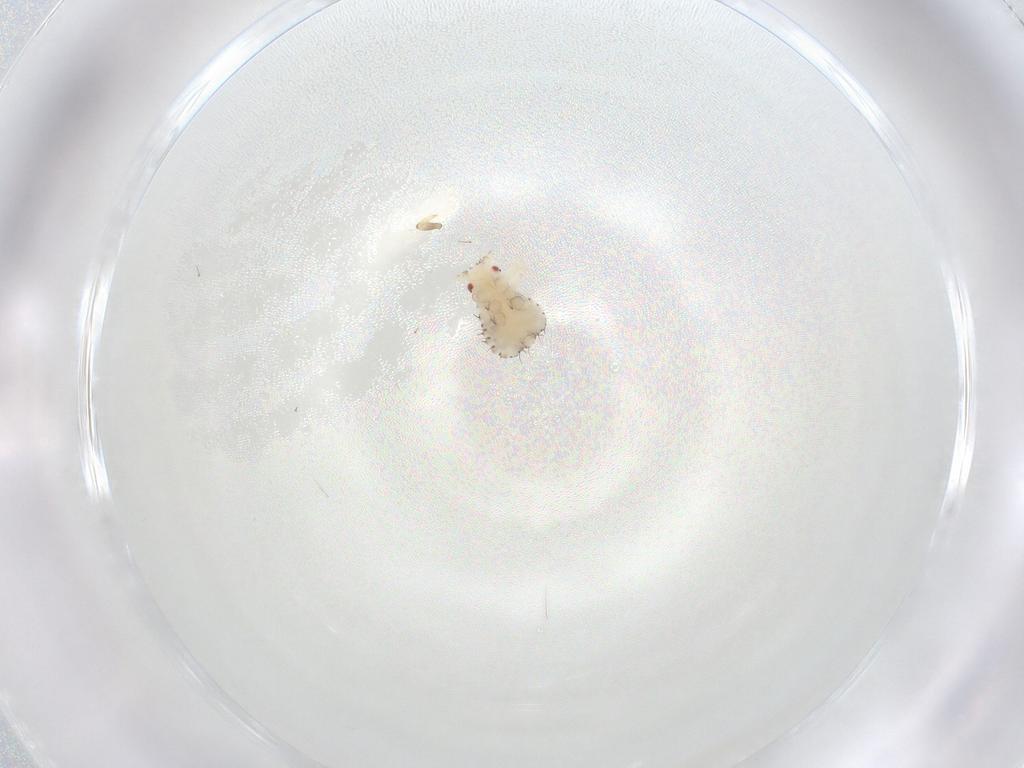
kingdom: Animalia
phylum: Arthropoda
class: Insecta
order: Hemiptera
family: Aphididae
